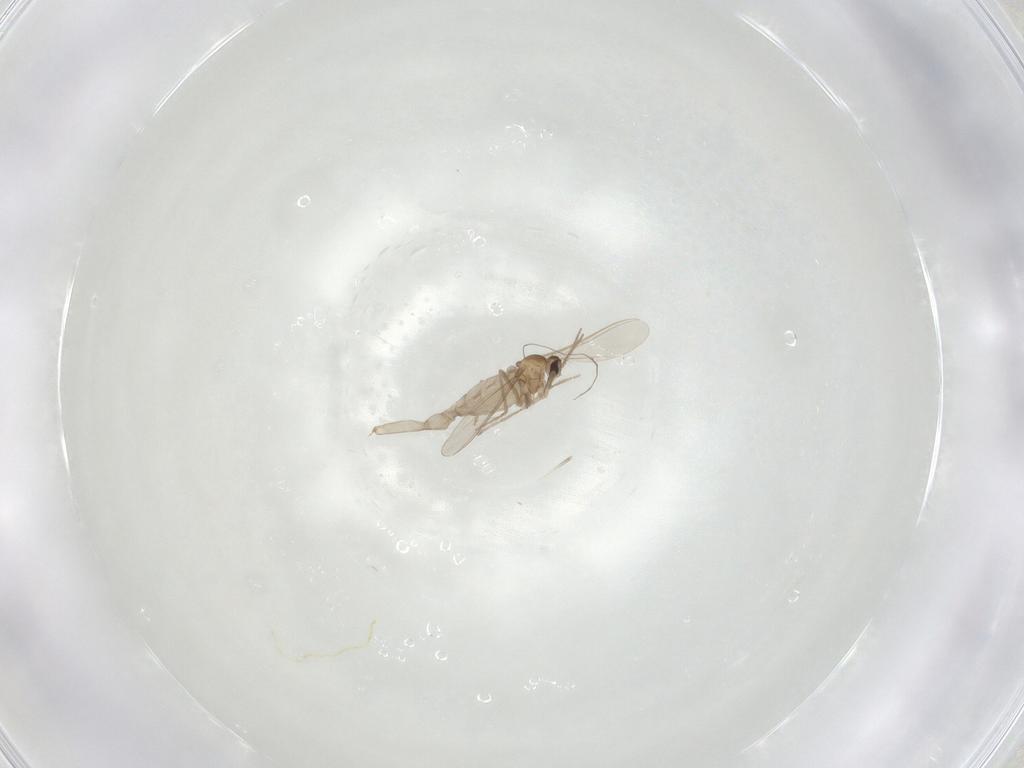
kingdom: Animalia
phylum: Arthropoda
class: Insecta
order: Diptera
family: Cecidomyiidae
